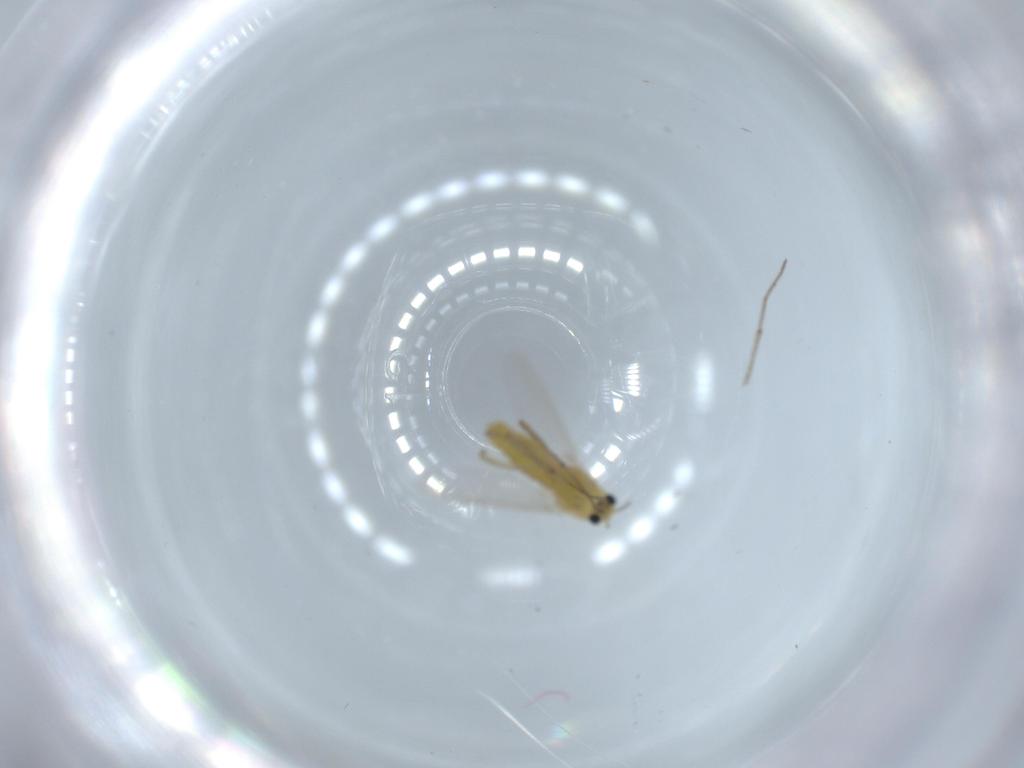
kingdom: Animalia
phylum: Arthropoda
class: Insecta
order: Diptera
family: Chironomidae
